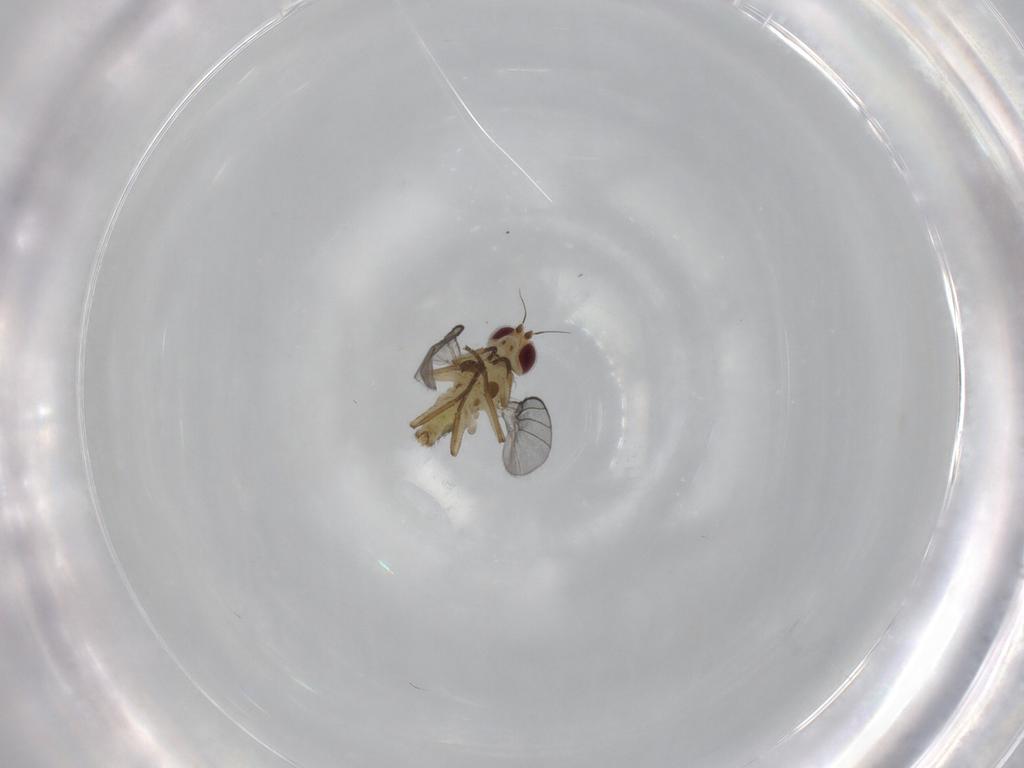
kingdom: Animalia
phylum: Arthropoda
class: Insecta
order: Diptera
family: Agromyzidae
